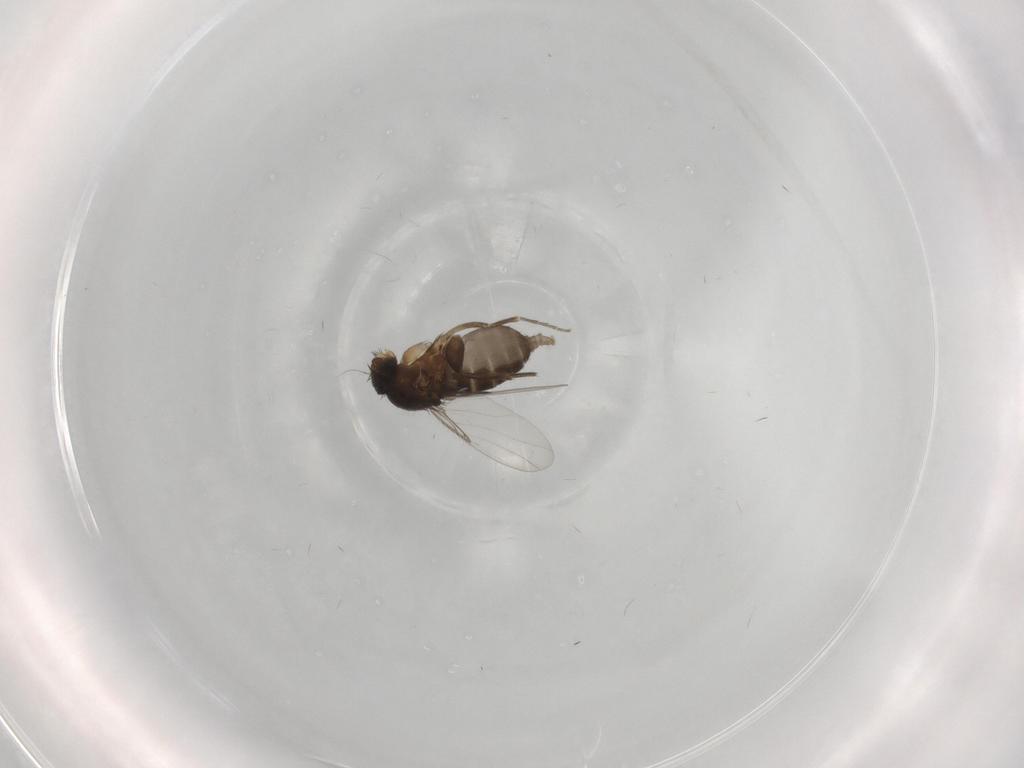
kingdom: Animalia
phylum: Arthropoda
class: Insecta
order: Diptera
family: Phoridae
